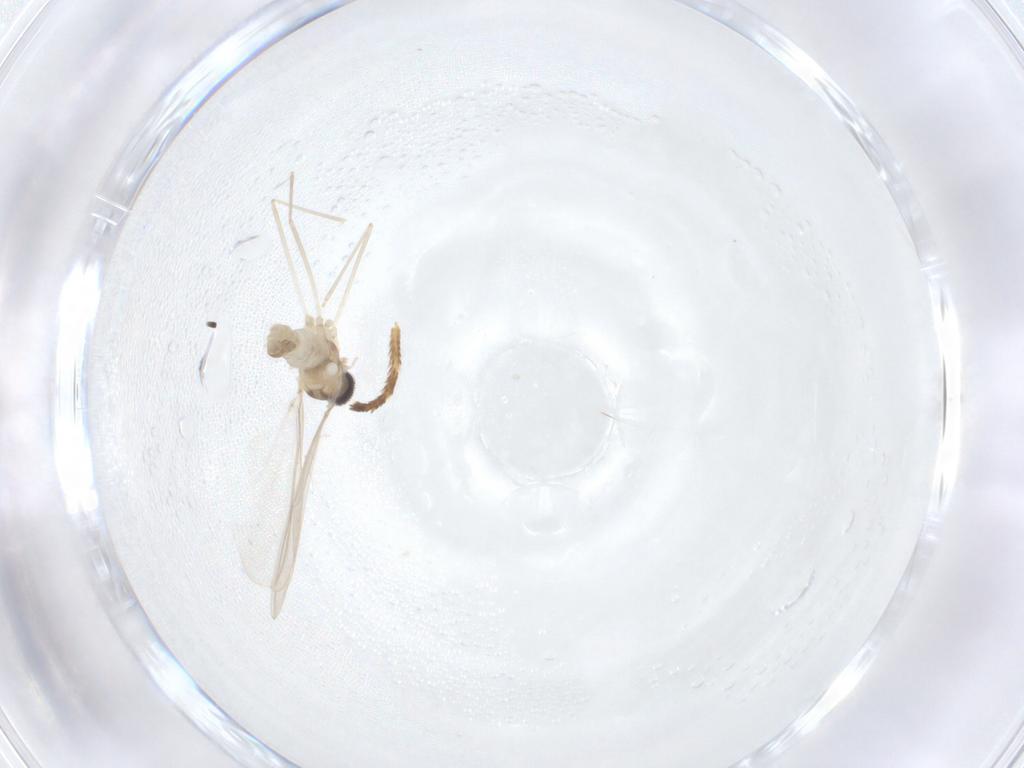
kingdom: Animalia
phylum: Arthropoda
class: Insecta
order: Diptera
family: Cecidomyiidae
